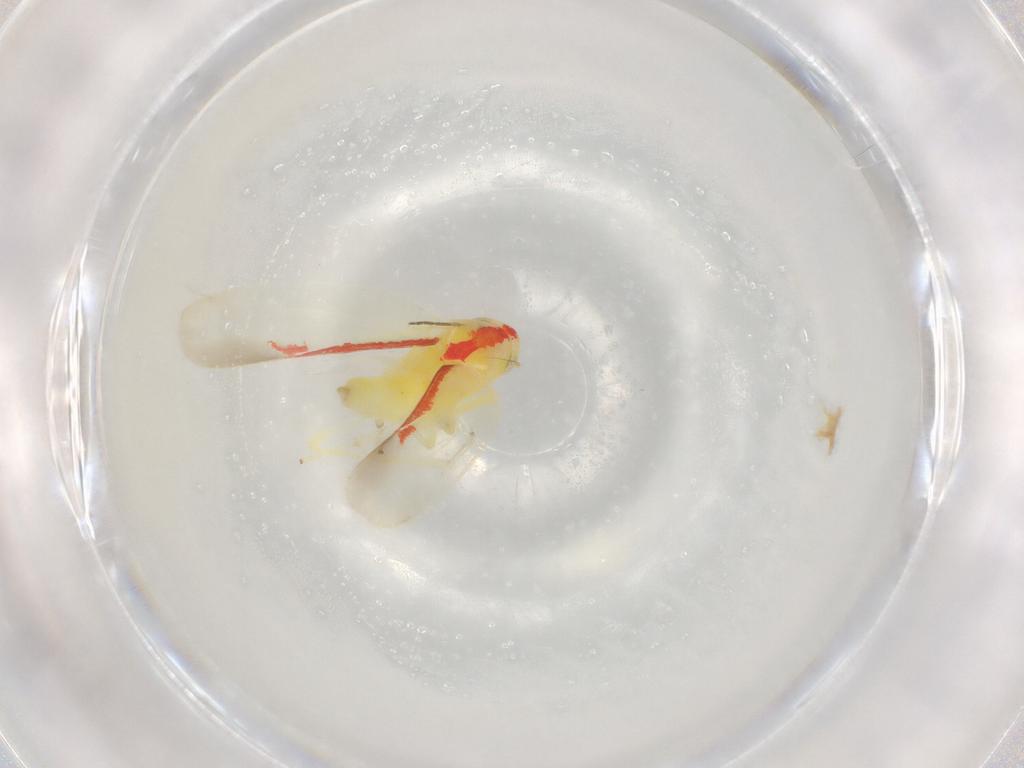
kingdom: Animalia
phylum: Arthropoda
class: Insecta
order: Hemiptera
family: Cicadellidae
